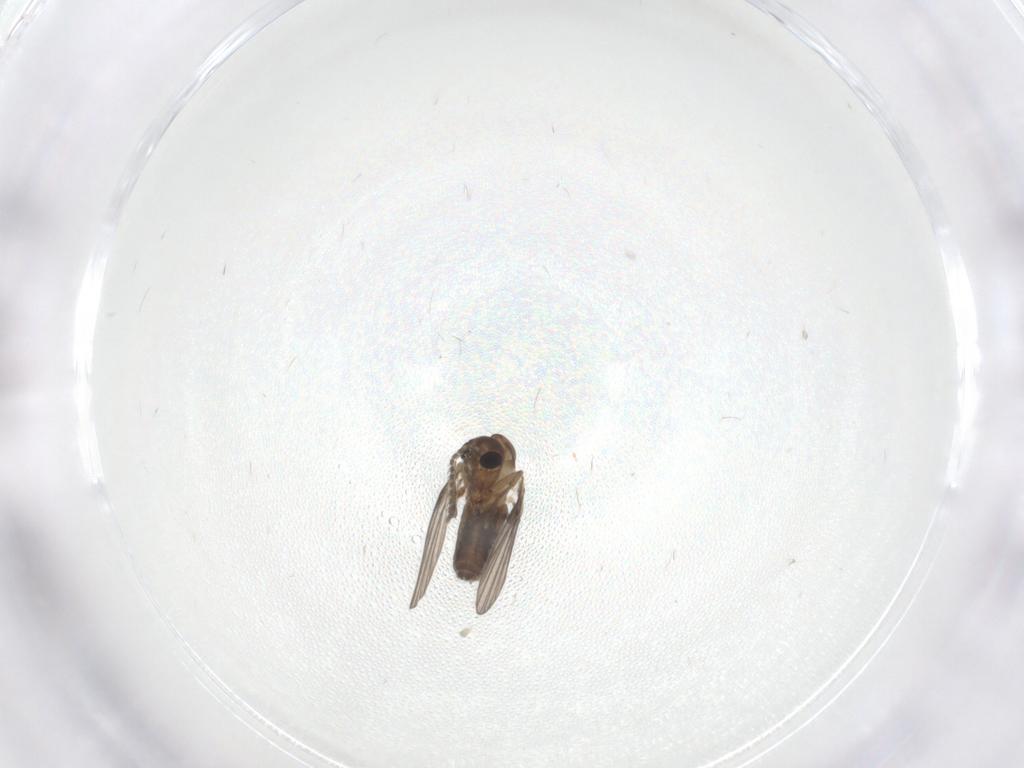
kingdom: Animalia
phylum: Arthropoda
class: Insecta
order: Diptera
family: Psychodidae
